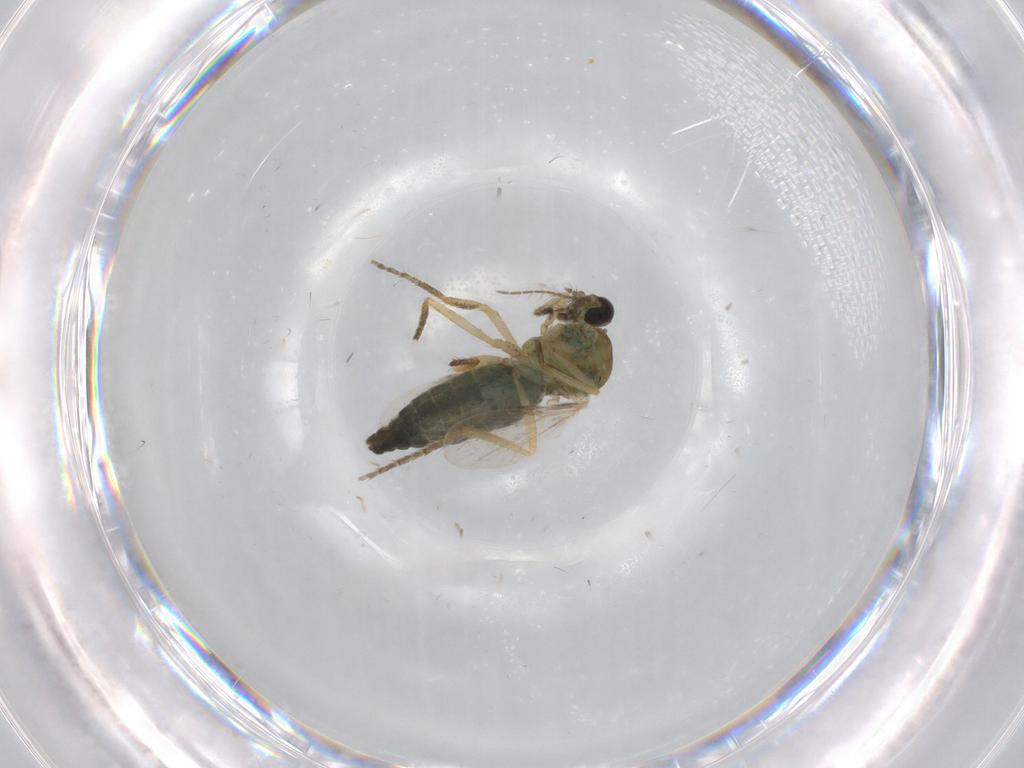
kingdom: Animalia
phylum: Arthropoda
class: Insecta
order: Diptera
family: Ceratopogonidae
